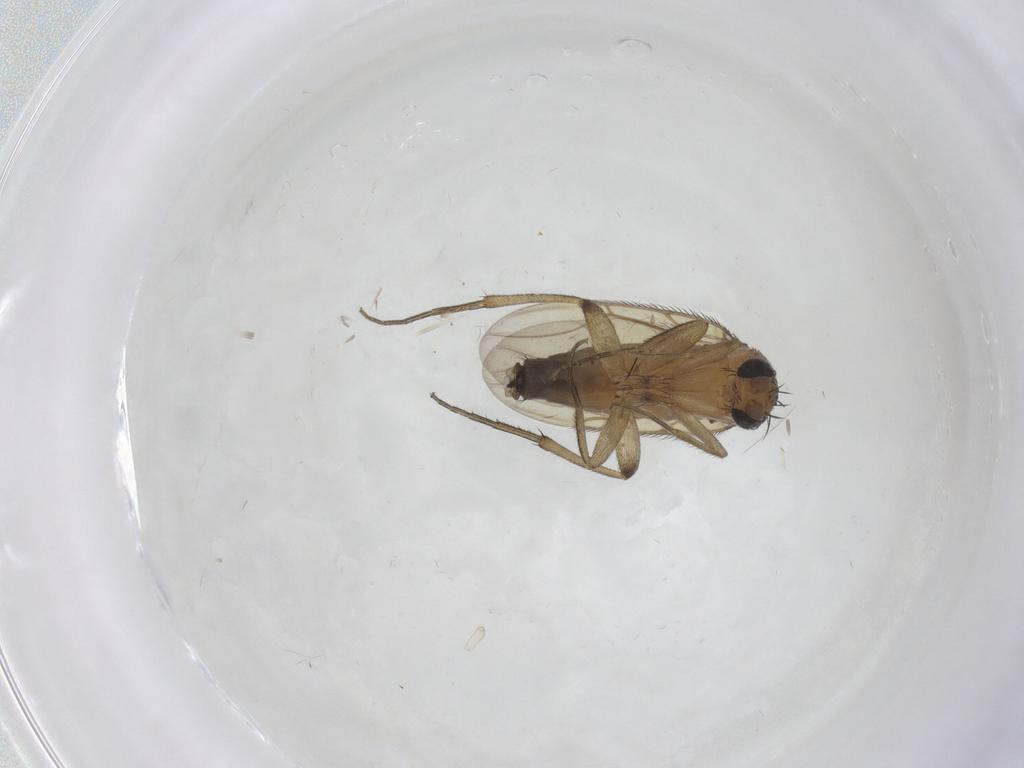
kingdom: Animalia
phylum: Arthropoda
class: Insecta
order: Diptera
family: Phoridae
